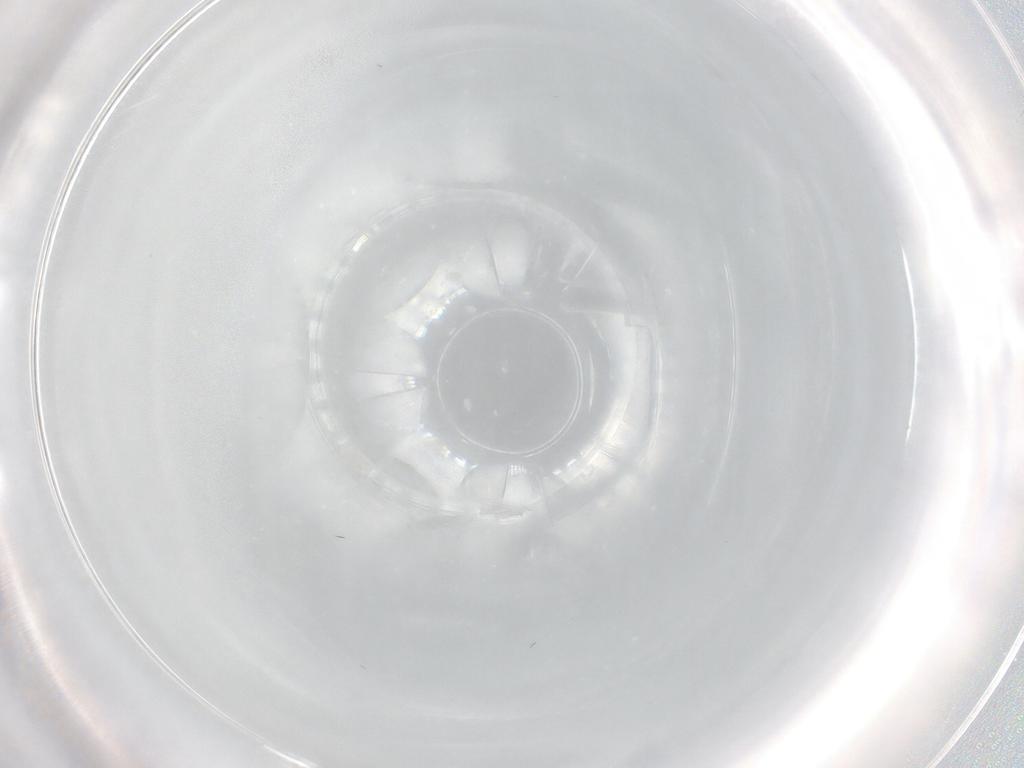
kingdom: Animalia
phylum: Arthropoda
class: Insecta
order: Diptera
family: Cecidomyiidae
